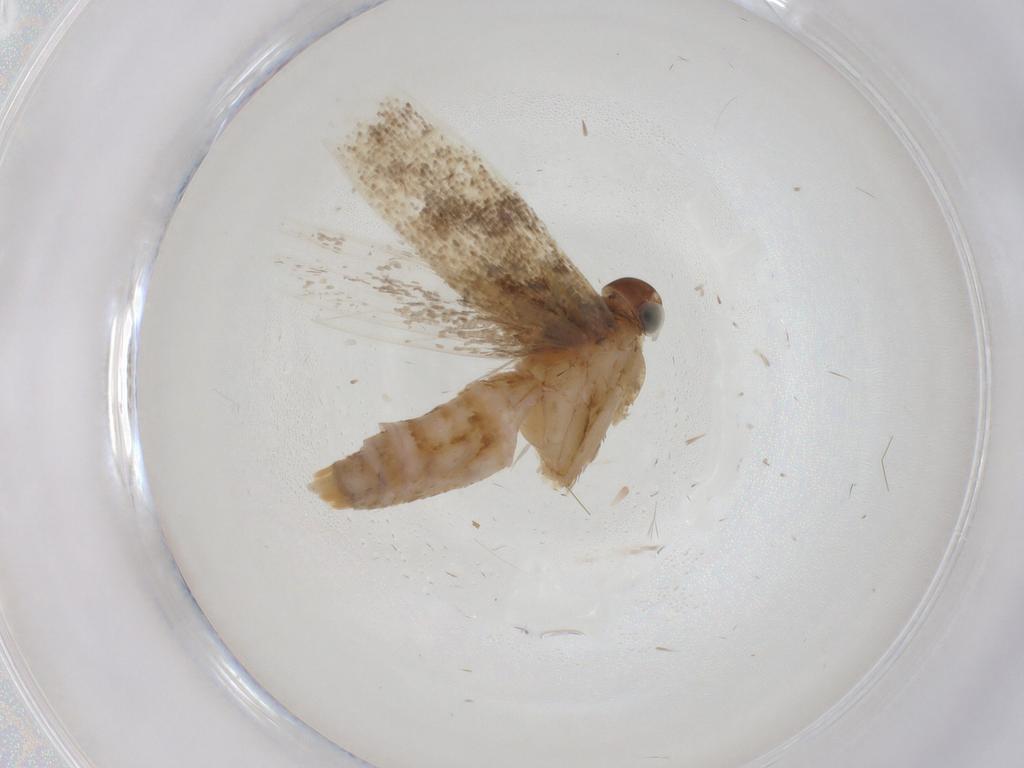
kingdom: Animalia
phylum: Arthropoda
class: Insecta
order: Lepidoptera
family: Gelechiidae
